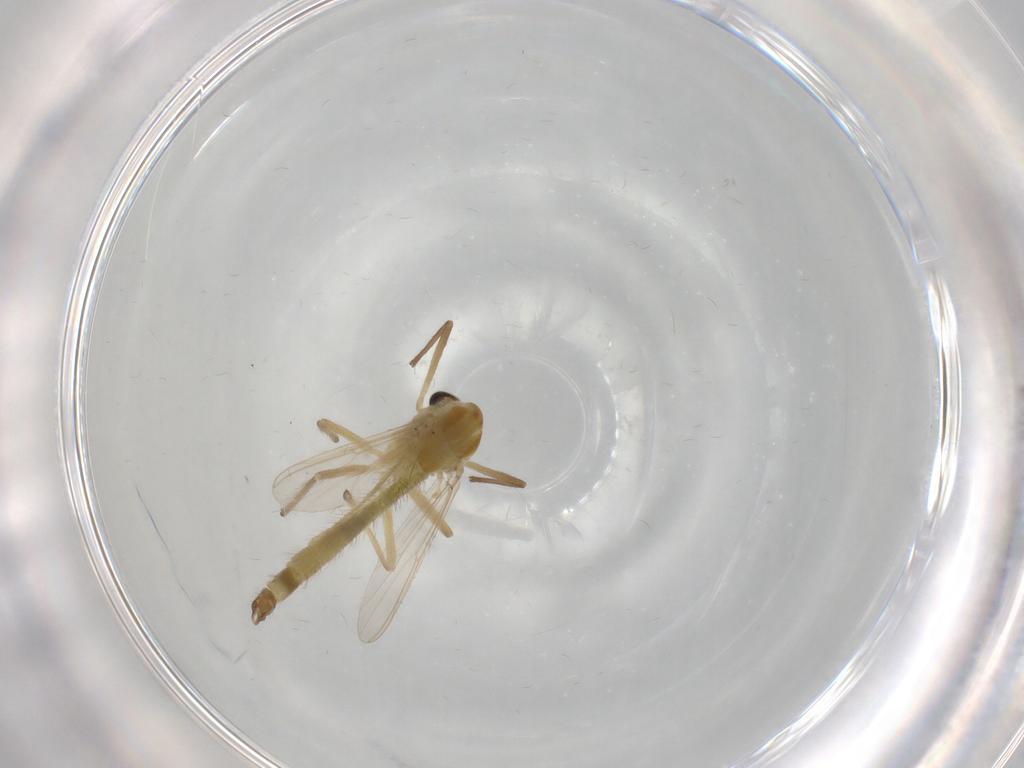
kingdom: Animalia
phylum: Arthropoda
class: Insecta
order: Diptera
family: Chironomidae
